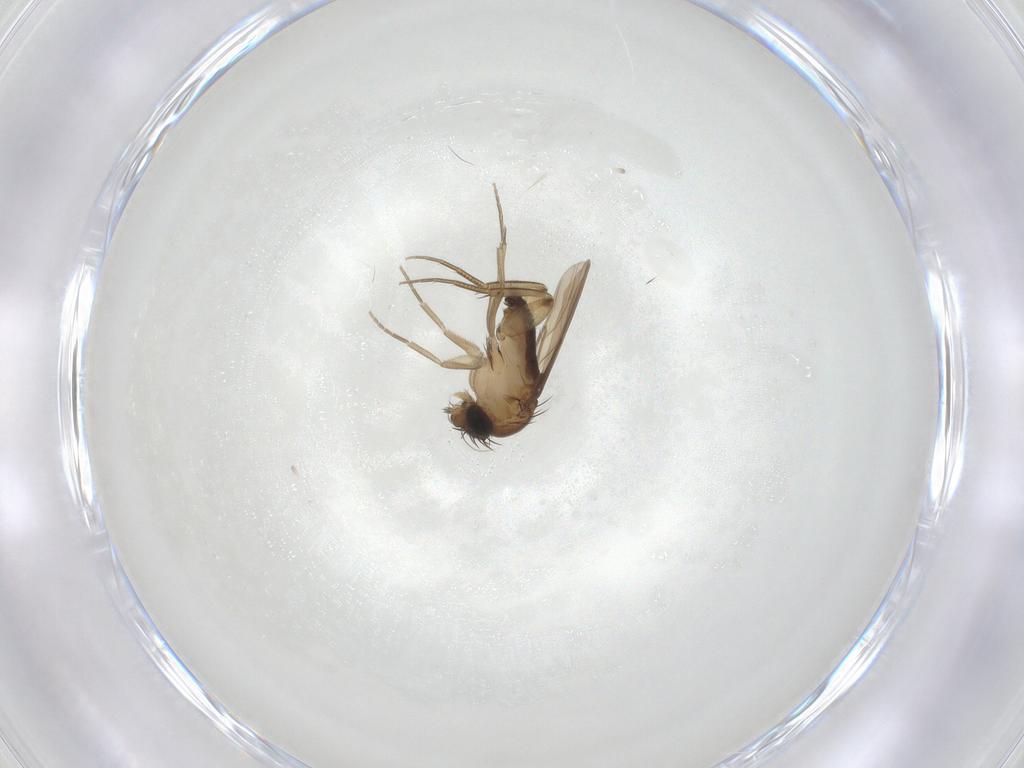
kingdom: Animalia
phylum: Arthropoda
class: Insecta
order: Diptera
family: Phoridae
